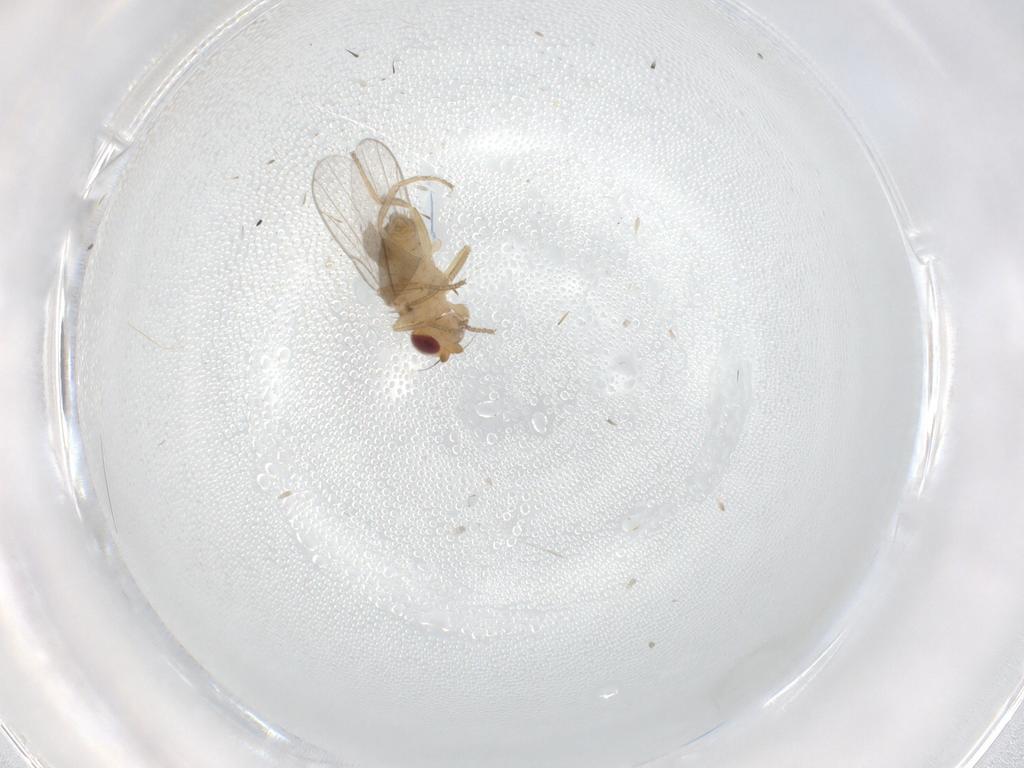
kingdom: Animalia
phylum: Arthropoda
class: Insecta
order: Diptera
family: Chloropidae
